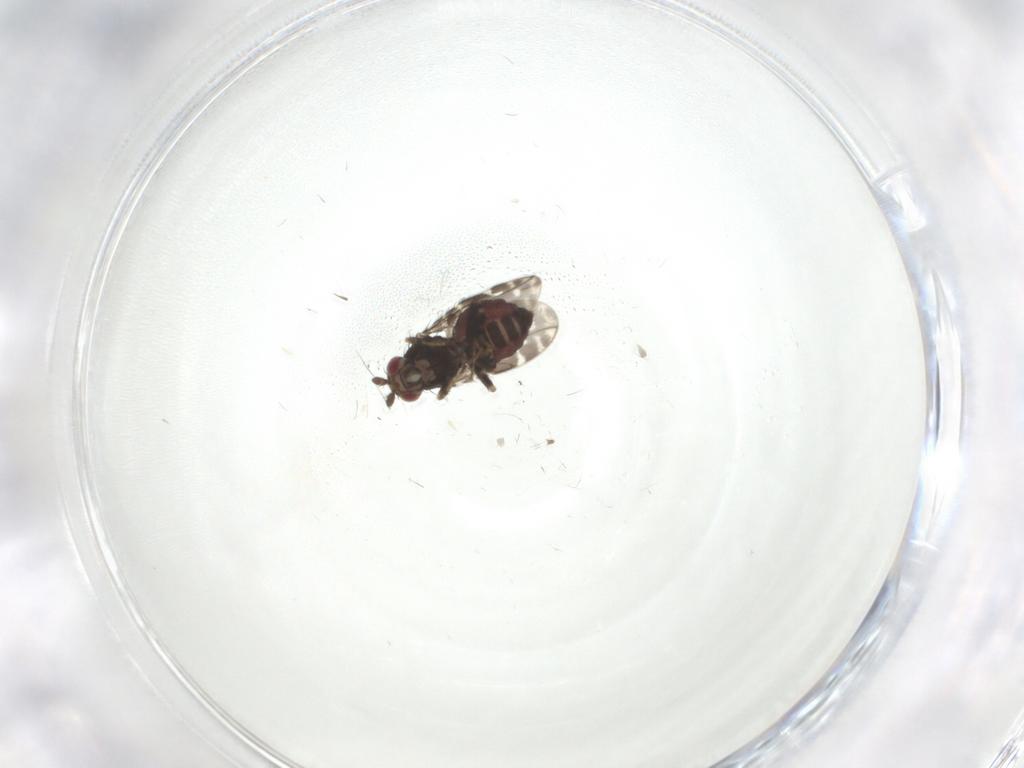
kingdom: Animalia
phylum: Arthropoda
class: Insecta
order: Diptera
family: Sphaeroceridae
